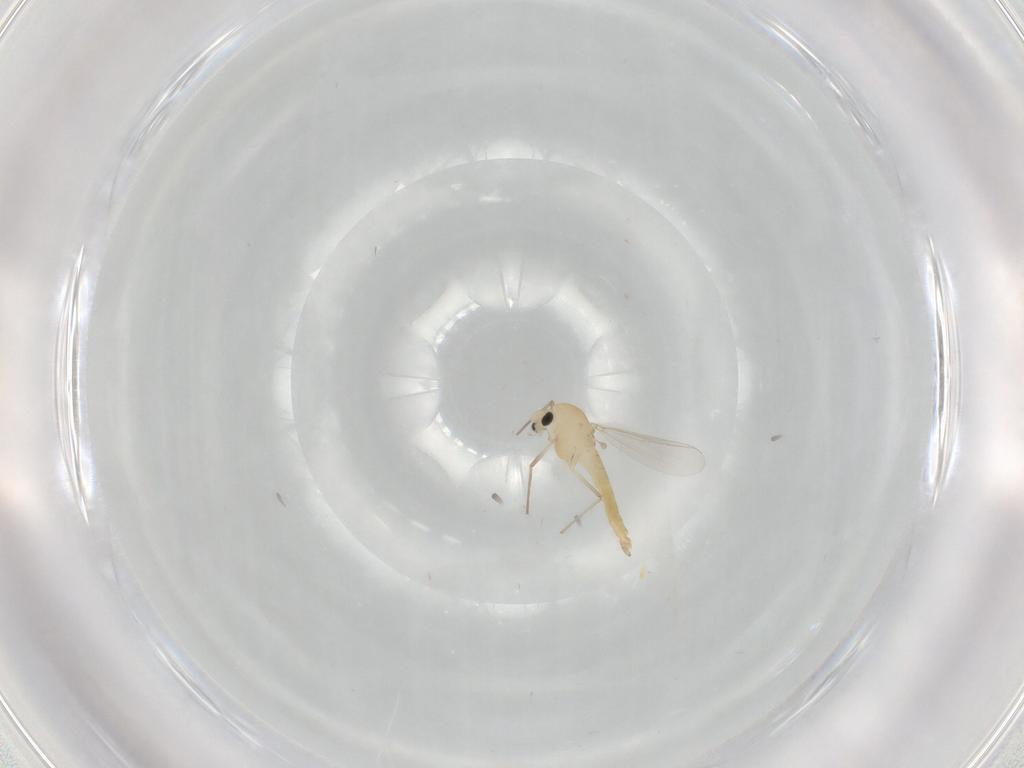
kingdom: Animalia
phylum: Arthropoda
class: Insecta
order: Diptera
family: Chironomidae
